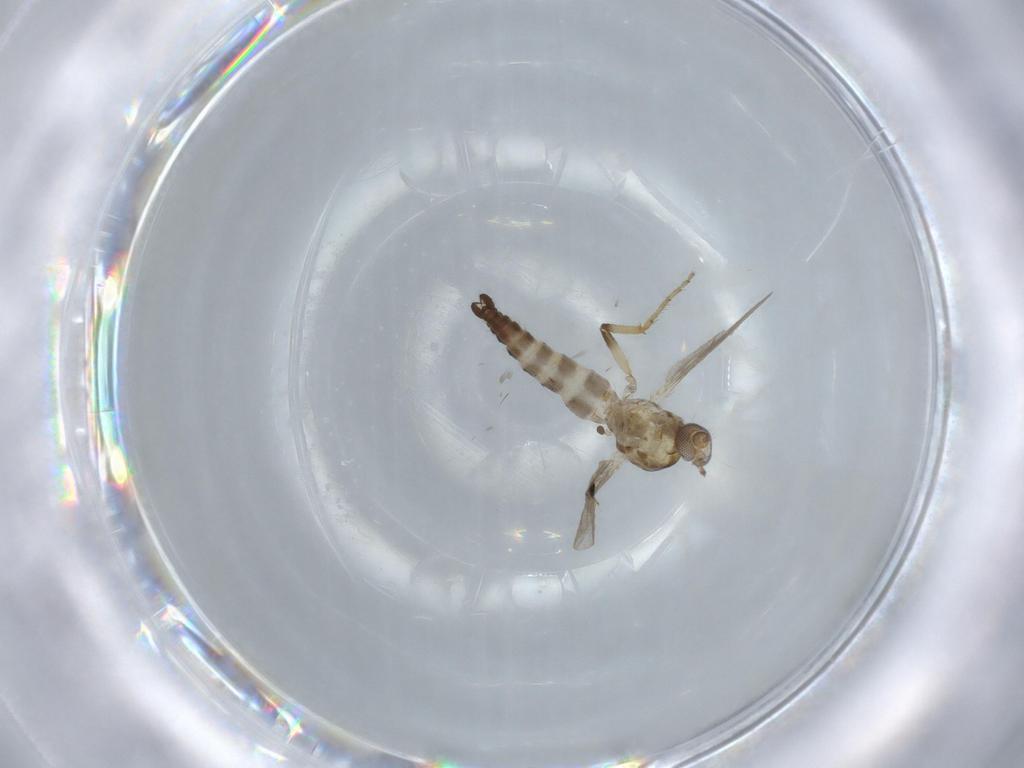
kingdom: Animalia
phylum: Arthropoda
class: Insecta
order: Diptera
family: Ceratopogonidae
